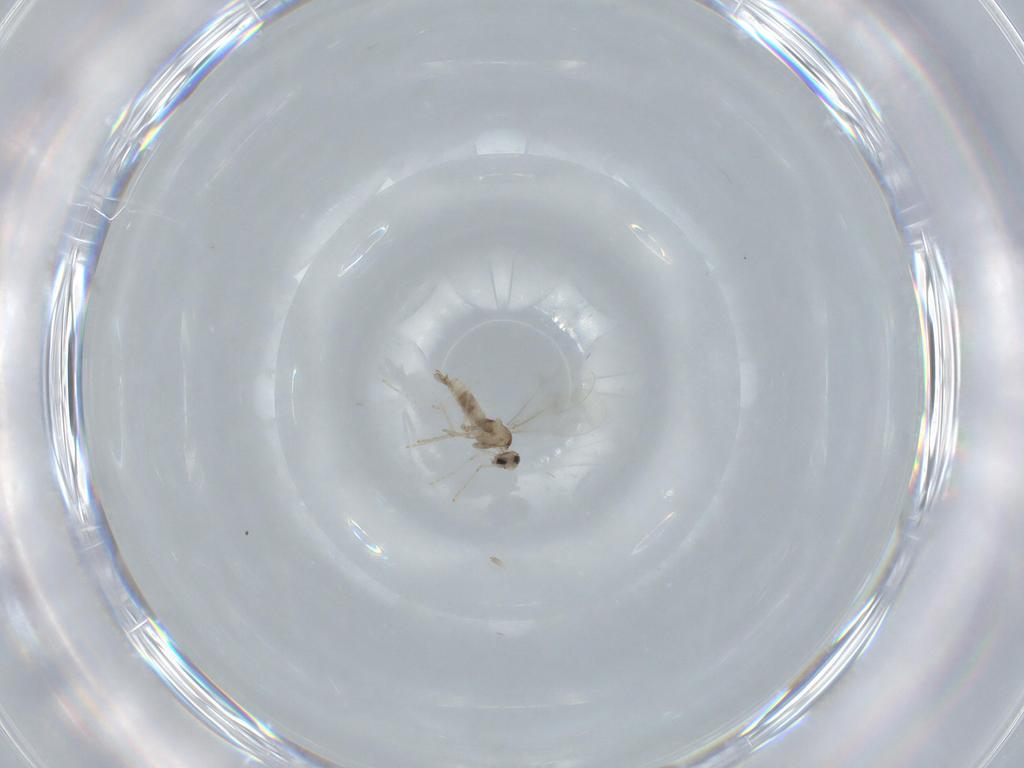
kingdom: Animalia
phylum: Arthropoda
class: Insecta
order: Diptera
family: Cecidomyiidae
